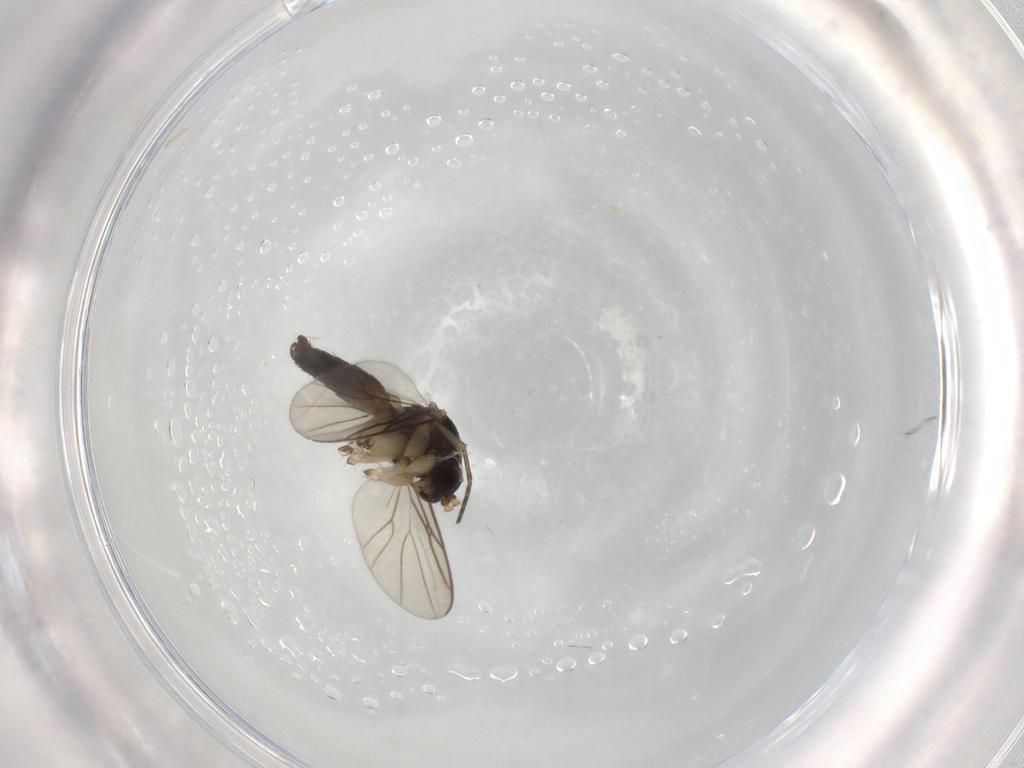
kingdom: Animalia
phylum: Arthropoda
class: Insecta
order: Diptera
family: Mycetophilidae
